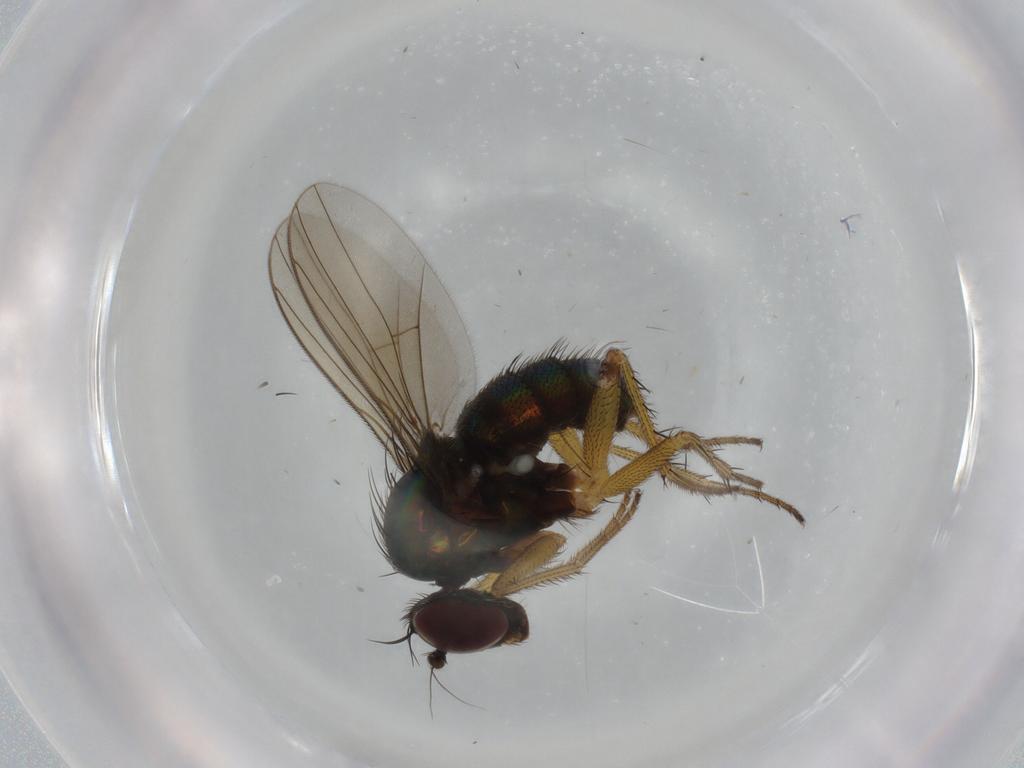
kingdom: Animalia
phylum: Arthropoda
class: Insecta
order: Diptera
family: Dolichopodidae
